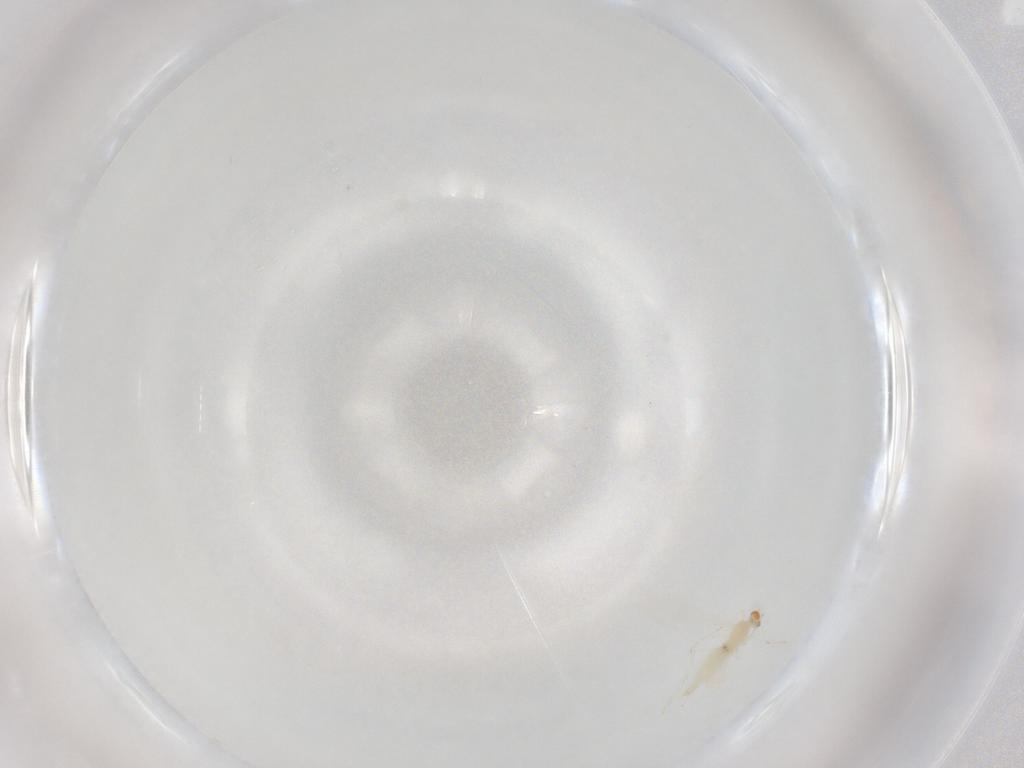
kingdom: Animalia
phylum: Arthropoda
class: Insecta
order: Diptera
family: Cecidomyiidae
